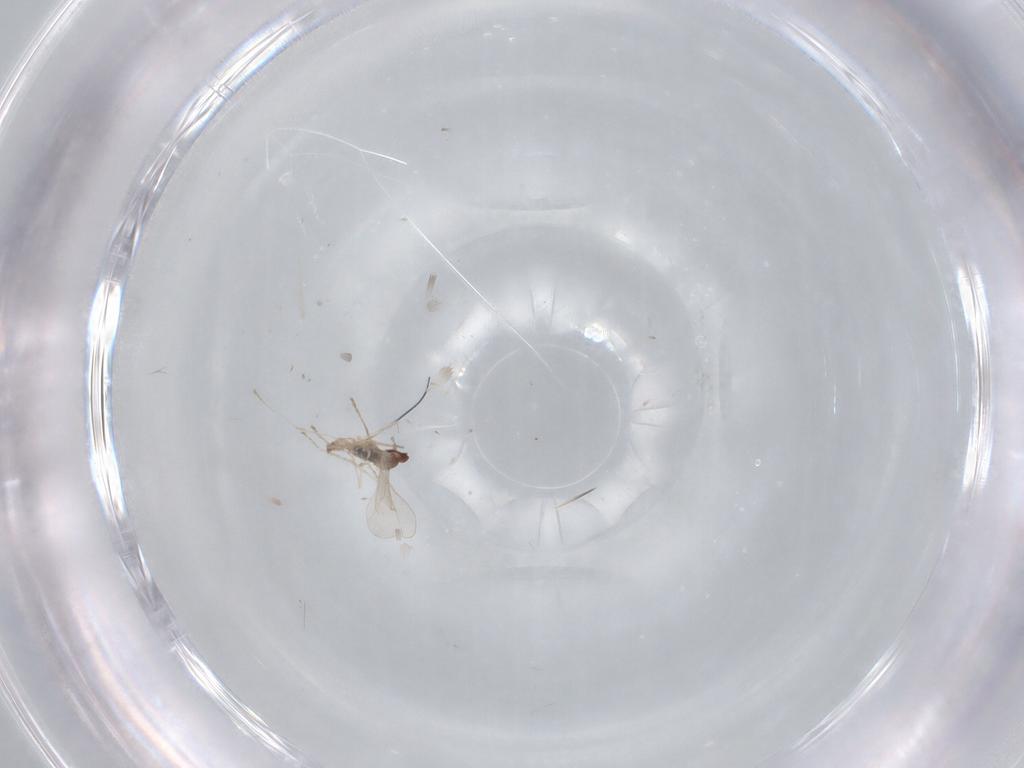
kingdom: Animalia
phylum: Arthropoda
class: Insecta
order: Diptera
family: Cecidomyiidae
